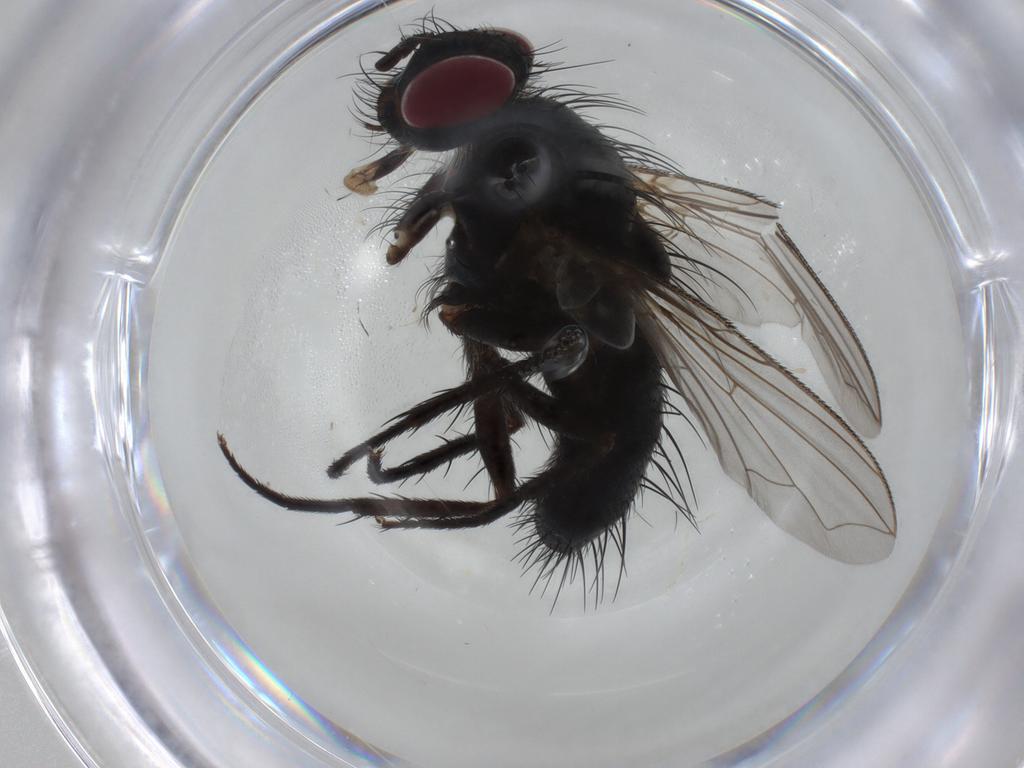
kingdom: Animalia
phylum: Arthropoda
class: Insecta
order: Diptera
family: Tachinidae
